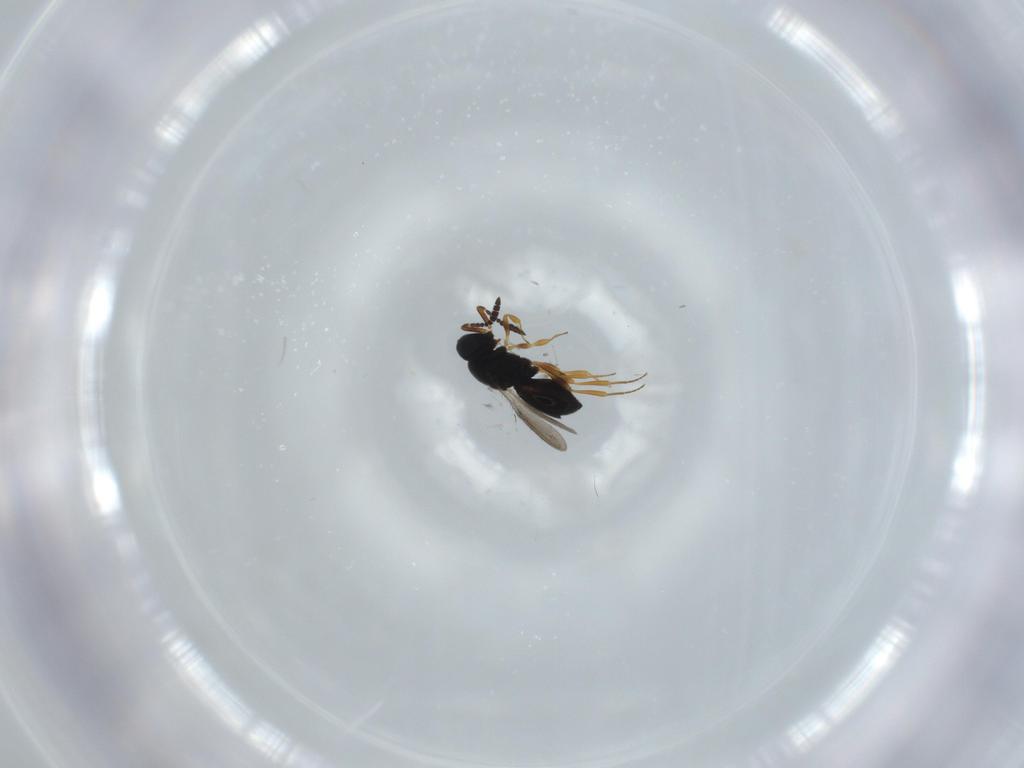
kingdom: Animalia
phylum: Arthropoda
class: Insecta
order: Hymenoptera
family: Scelionidae
